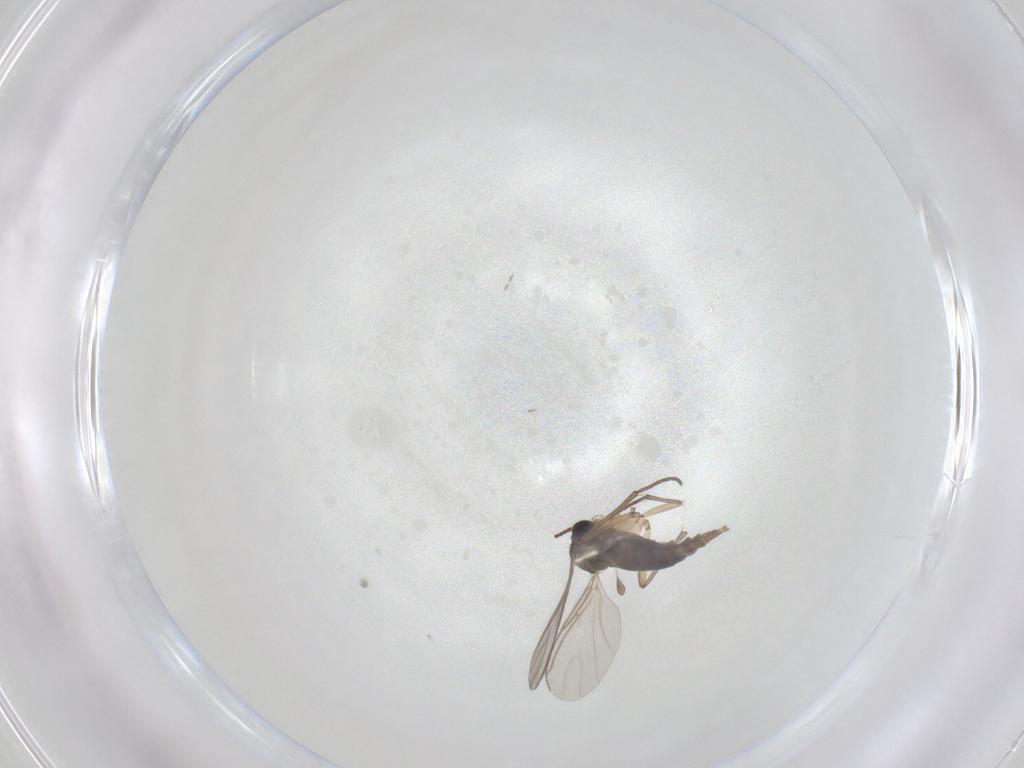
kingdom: Animalia
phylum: Arthropoda
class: Insecta
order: Diptera
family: Sciaridae
